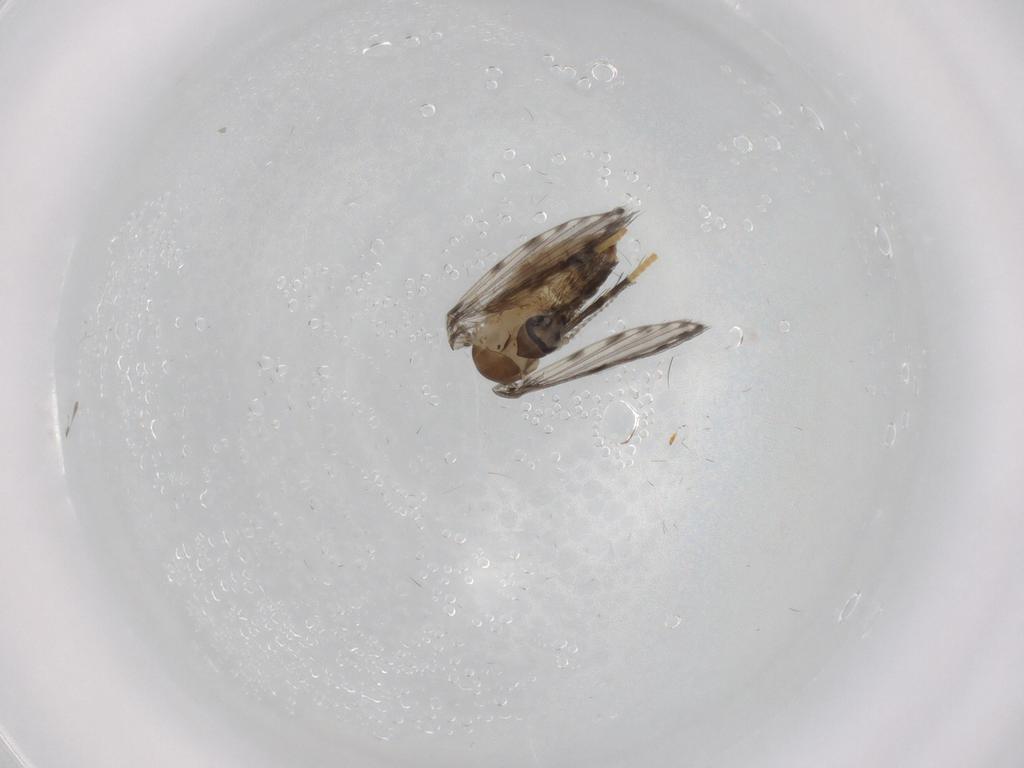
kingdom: Animalia
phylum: Arthropoda
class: Insecta
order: Diptera
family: Psychodidae
